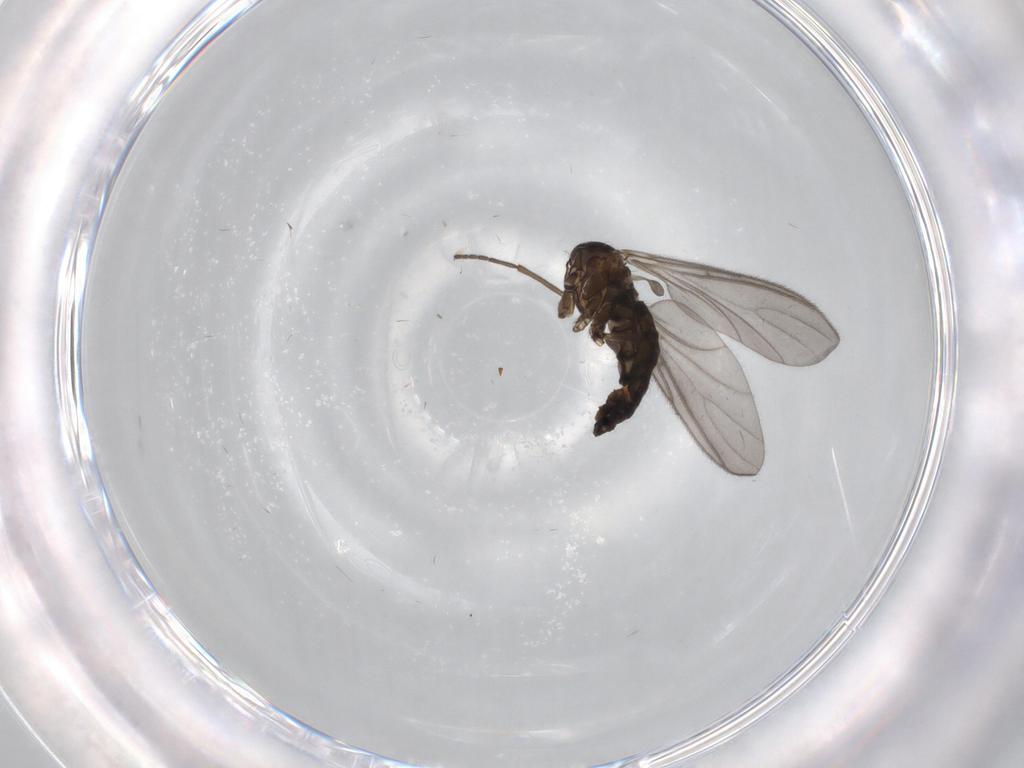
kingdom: Animalia
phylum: Arthropoda
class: Insecta
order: Diptera
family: Sciaridae
